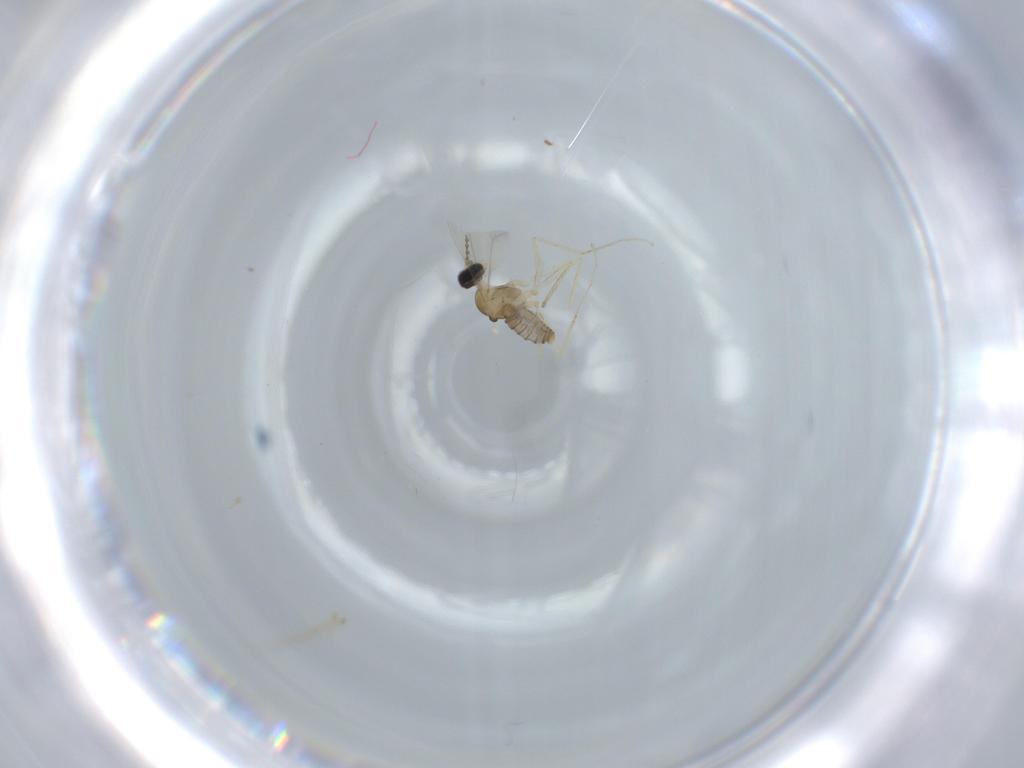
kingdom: Animalia
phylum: Arthropoda
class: Insecta
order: Diptera
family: Cecidomyiidae
